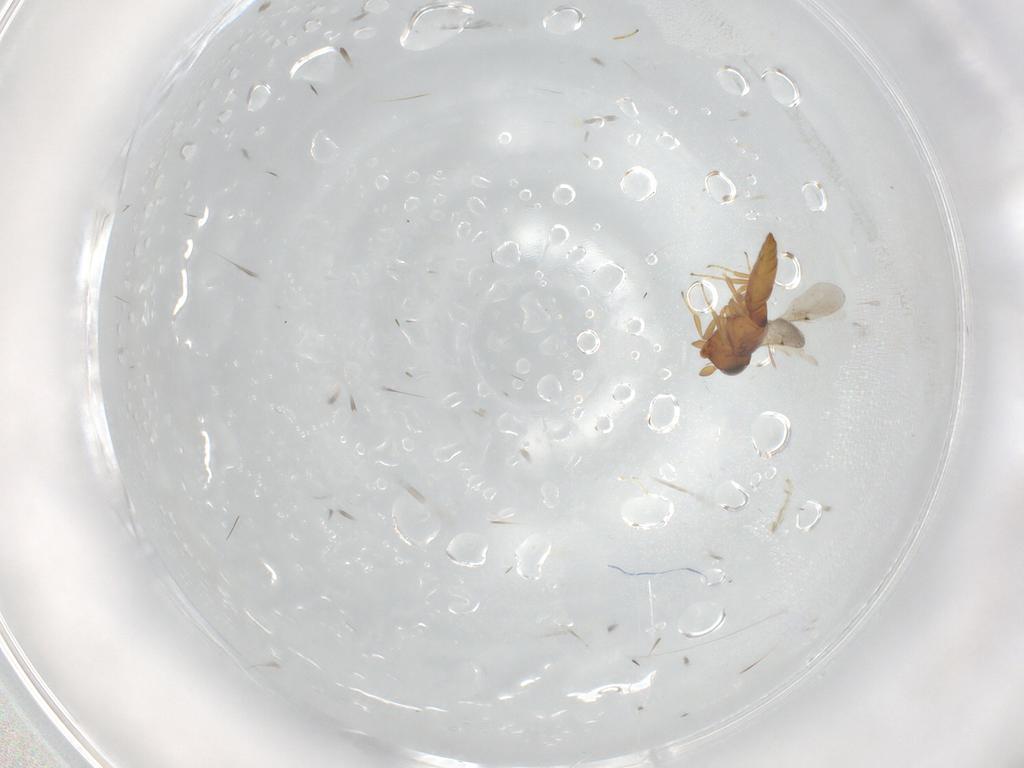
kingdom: Animalia
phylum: Arthropoda
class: Insecta
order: Hymenoptera
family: Scelionidae
